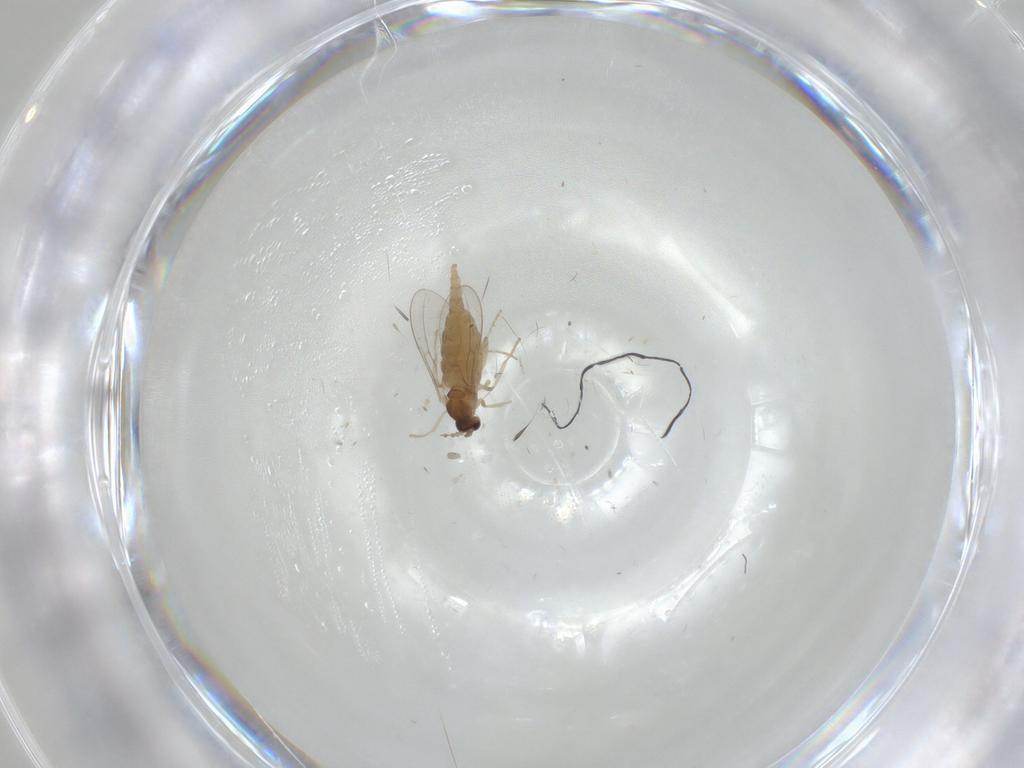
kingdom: Animalia
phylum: Arthropoda
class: Insecta
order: Diptera
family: Cecidomyiidae
